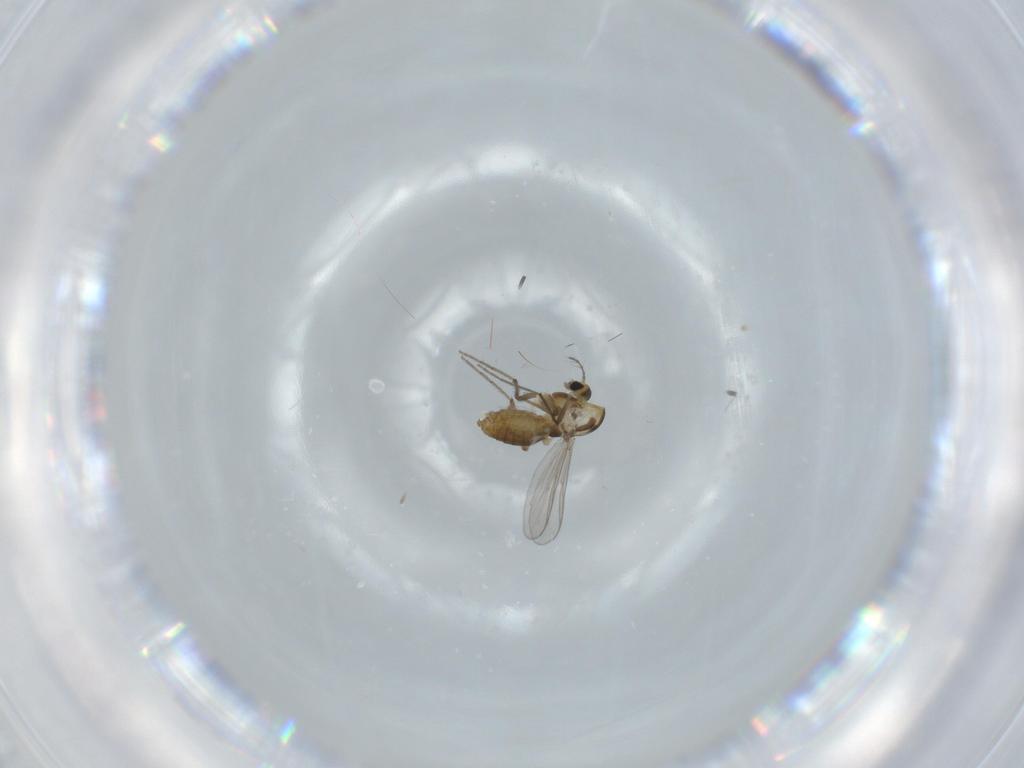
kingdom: Animalia
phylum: Arthropoda
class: Insecta
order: Diptera
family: Chironomidae
